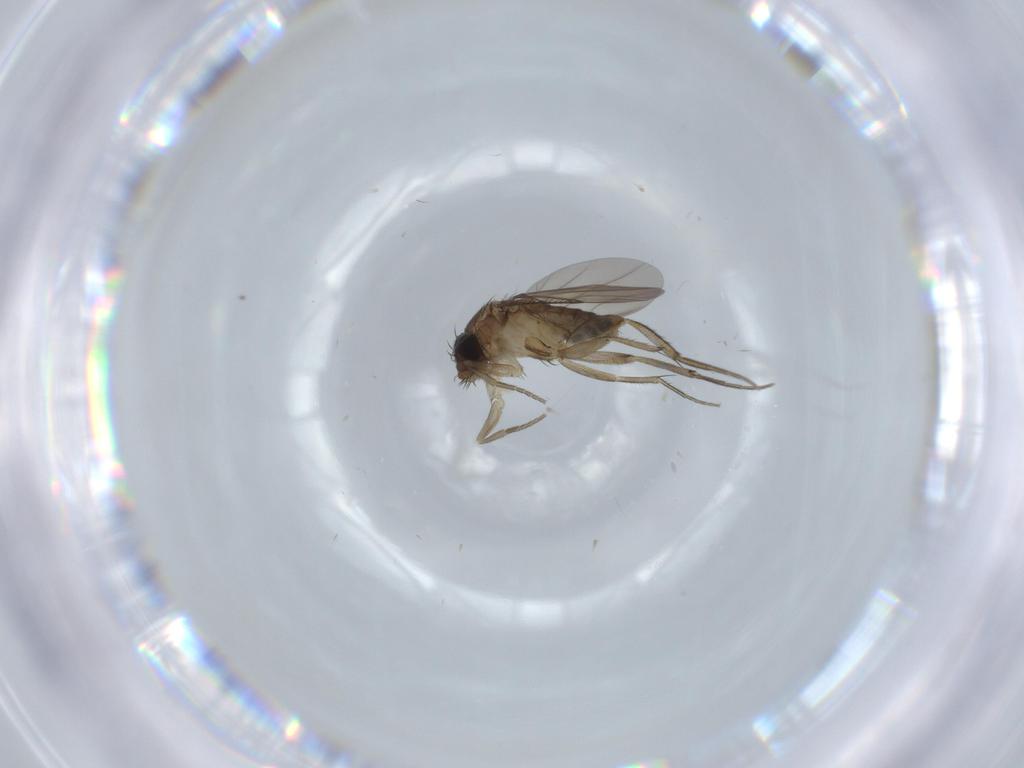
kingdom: Animalia
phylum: Arthropoda
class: Insecta
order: Diptera
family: Phoridae
